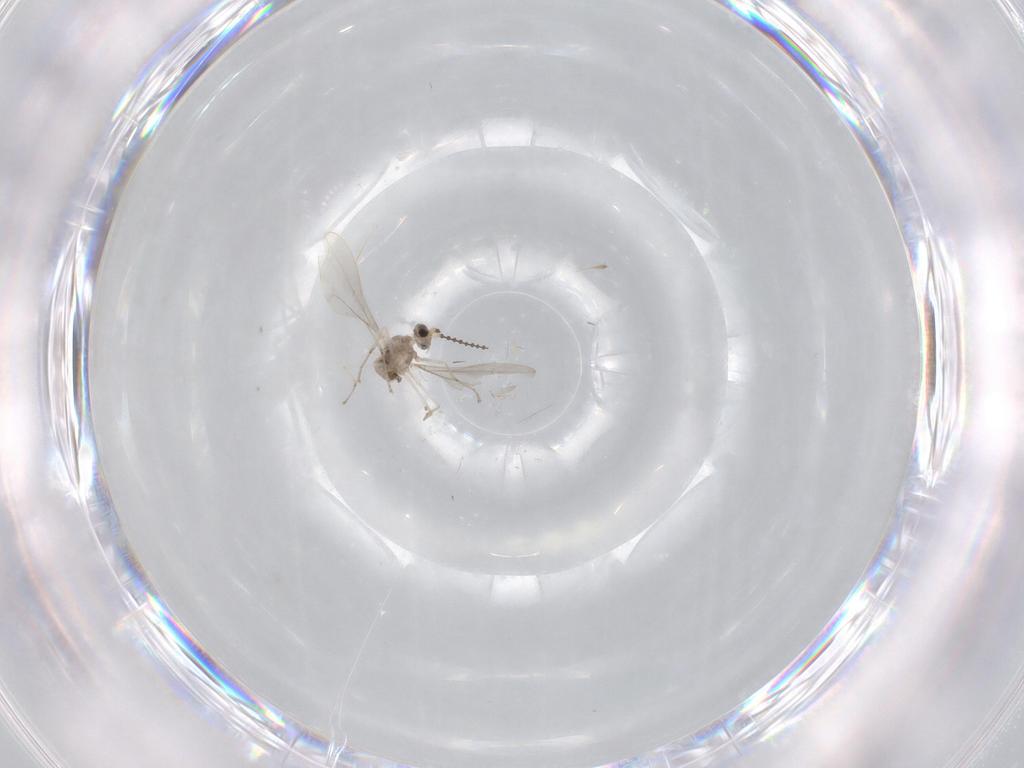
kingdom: Animalia
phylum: Arthropoda
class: Insecta
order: Diptera
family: Cecidomyiidae
